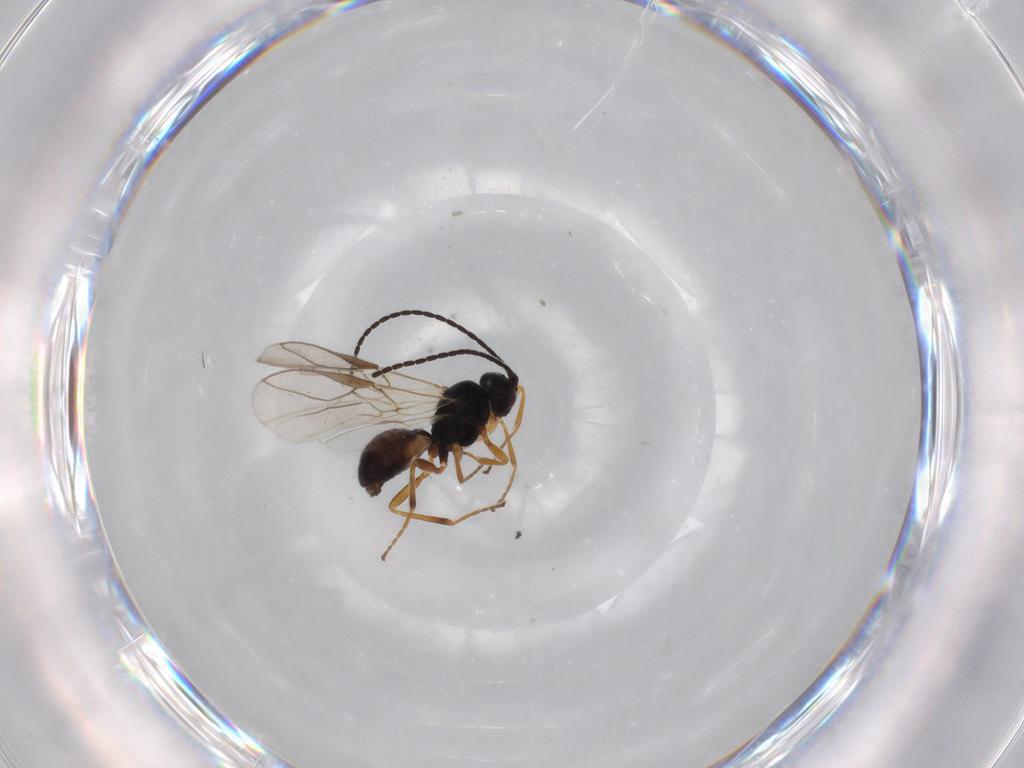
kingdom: Animalia
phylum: Arthropoda
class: Insecta
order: Hymenoptera
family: Braconidae
